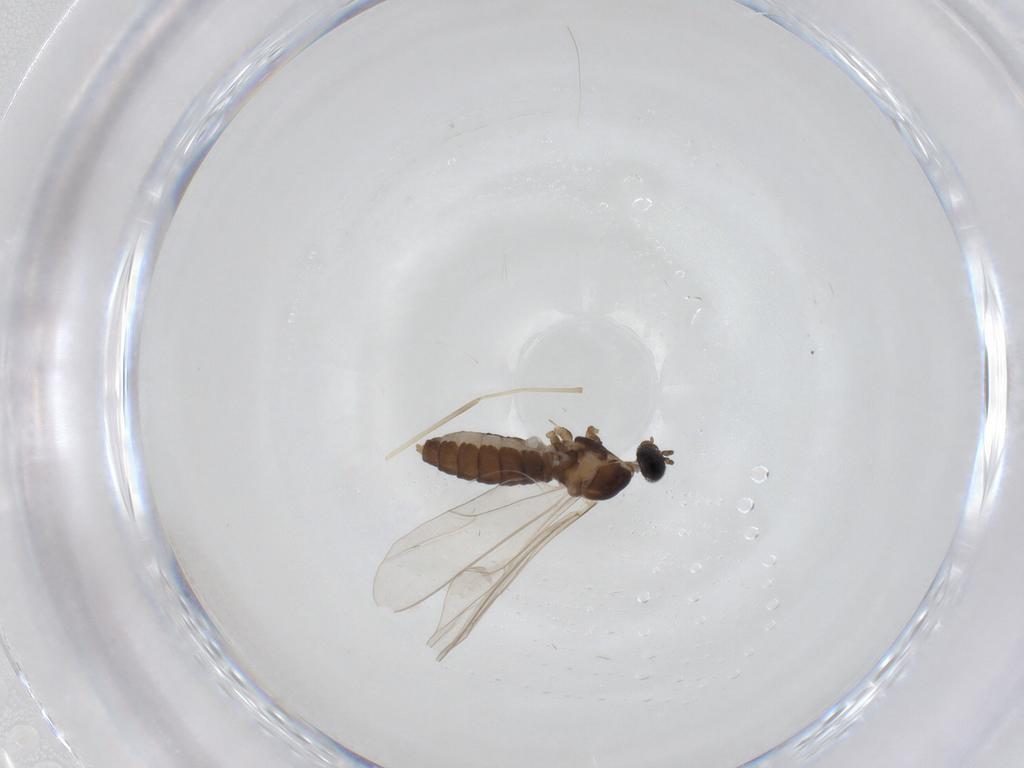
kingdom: Animalia
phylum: Arthropoda
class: Insecta
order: Diptera
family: Cecidomyiidae
